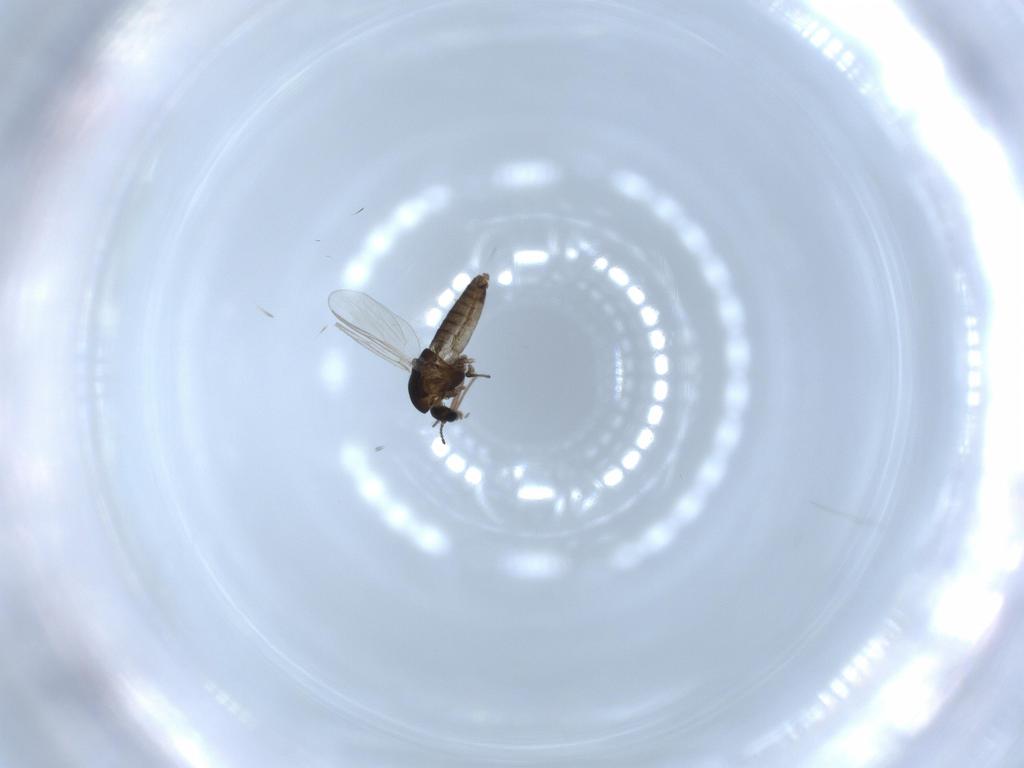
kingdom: Animalia
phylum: Arthropoda
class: Insecta
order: Diptera
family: Chironomidae
